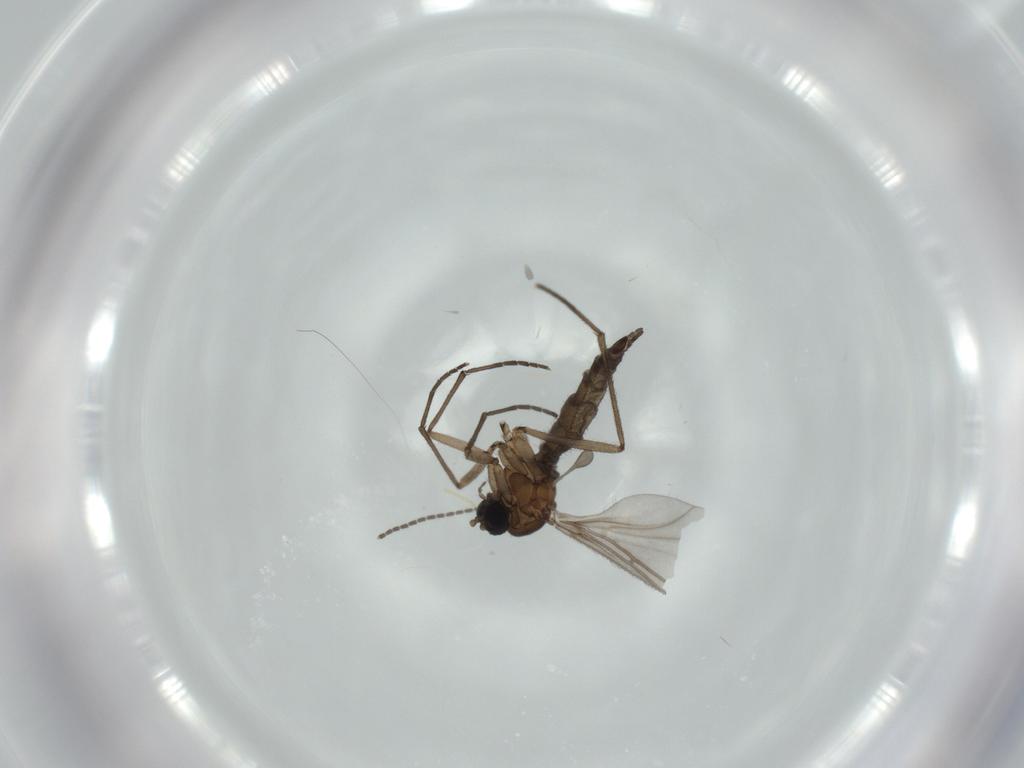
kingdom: Animalia
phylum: Arthropoda
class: Insecta
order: Diptera
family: Sciaridae
